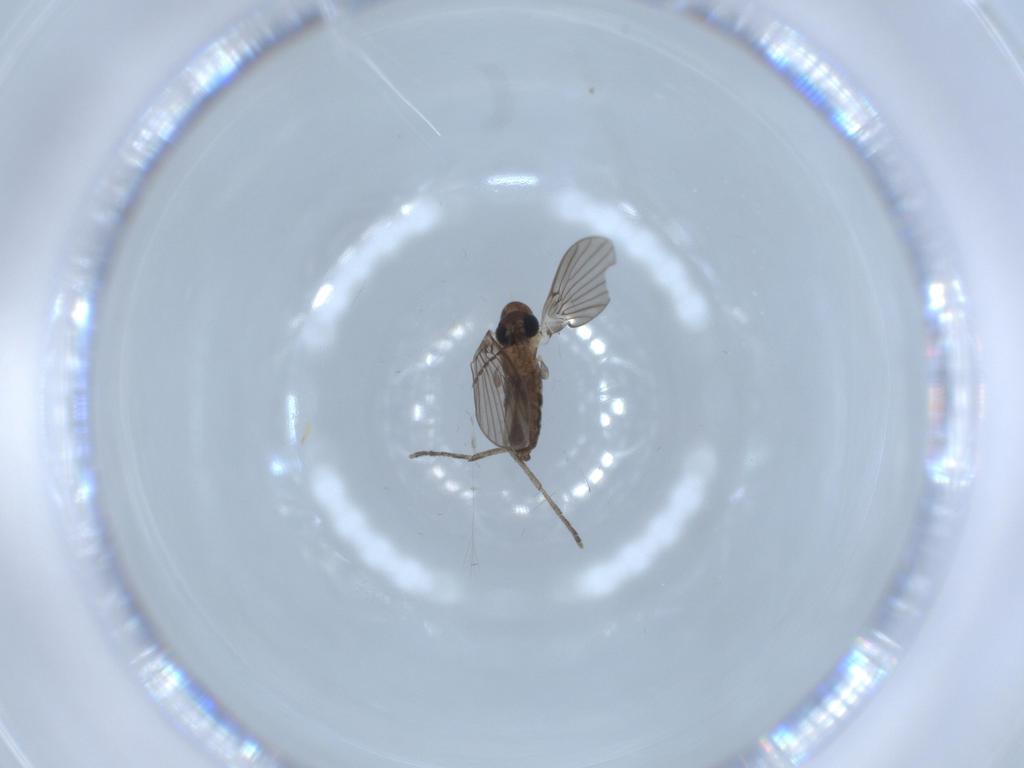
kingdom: Animalia
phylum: Arthropoda
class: Insecta
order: Diptera
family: Psychodidae
